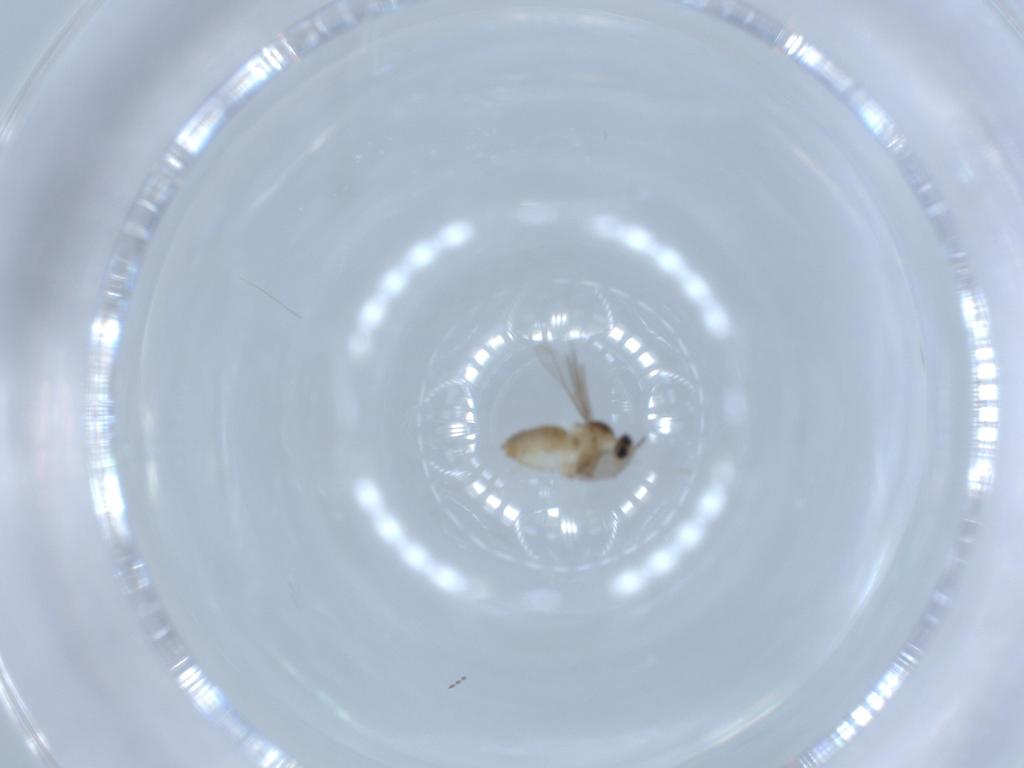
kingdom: Animalia
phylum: Arthropoda
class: Insecta
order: Diptera
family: Cecidomyiidae
